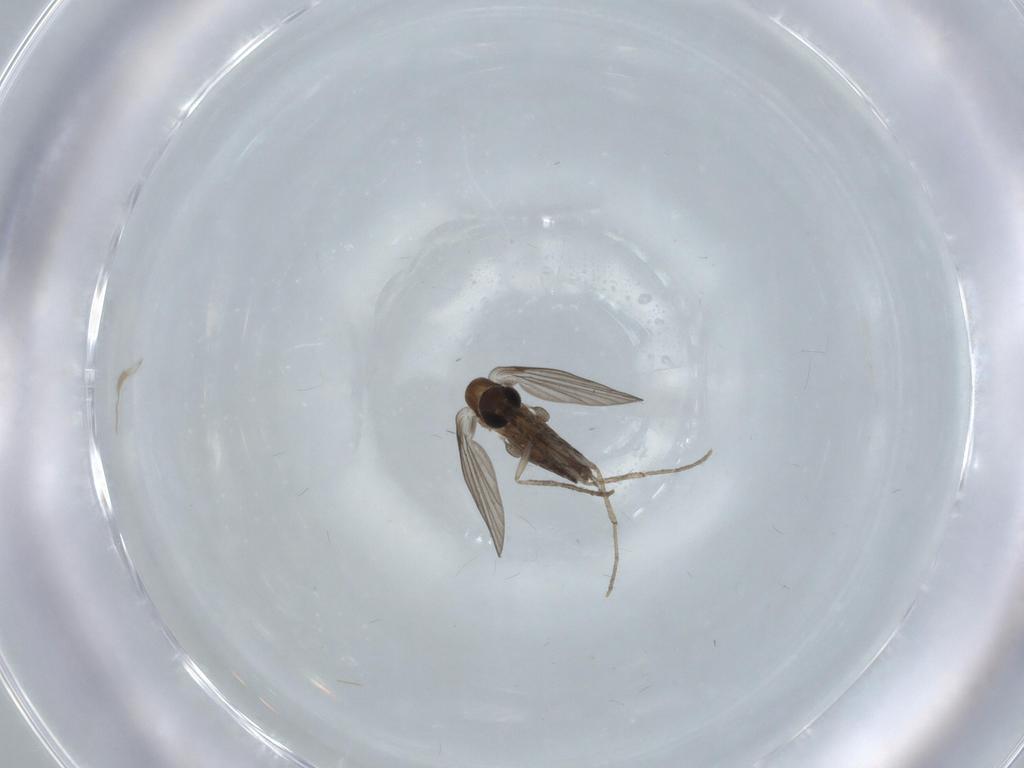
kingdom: Animalia
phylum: Arthropoda
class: Insecta
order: Diptera
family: Psychodidae
